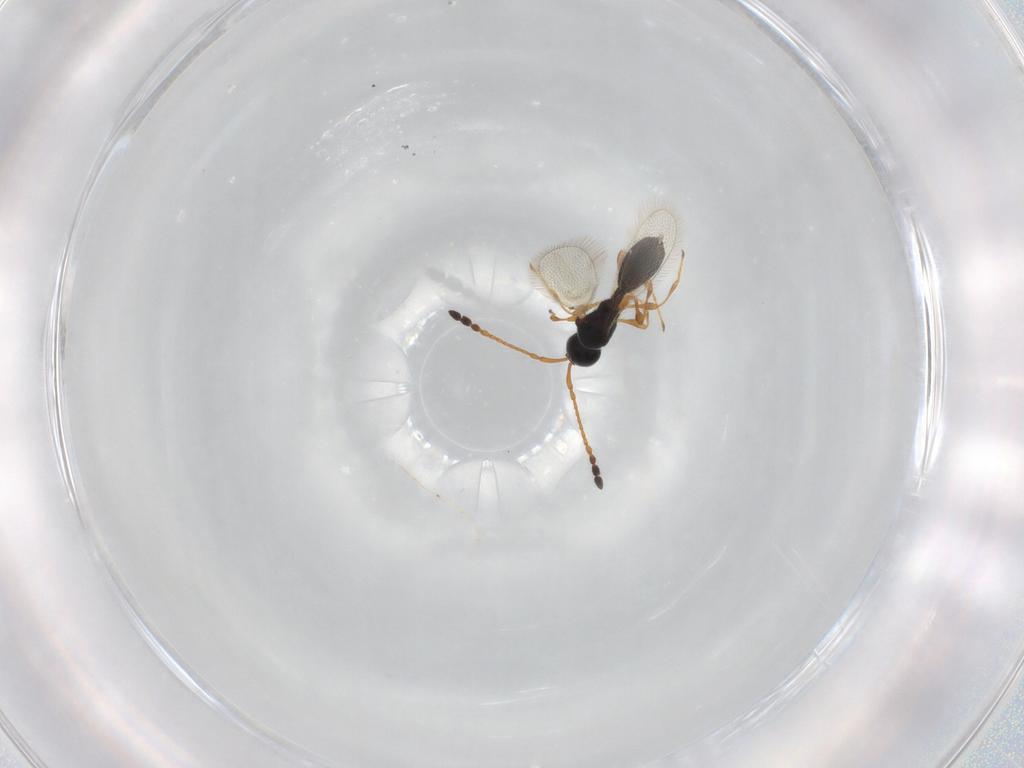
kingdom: Animalia
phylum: Arthropoda
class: Insecta
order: Hymenoptera
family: Diapriidae
